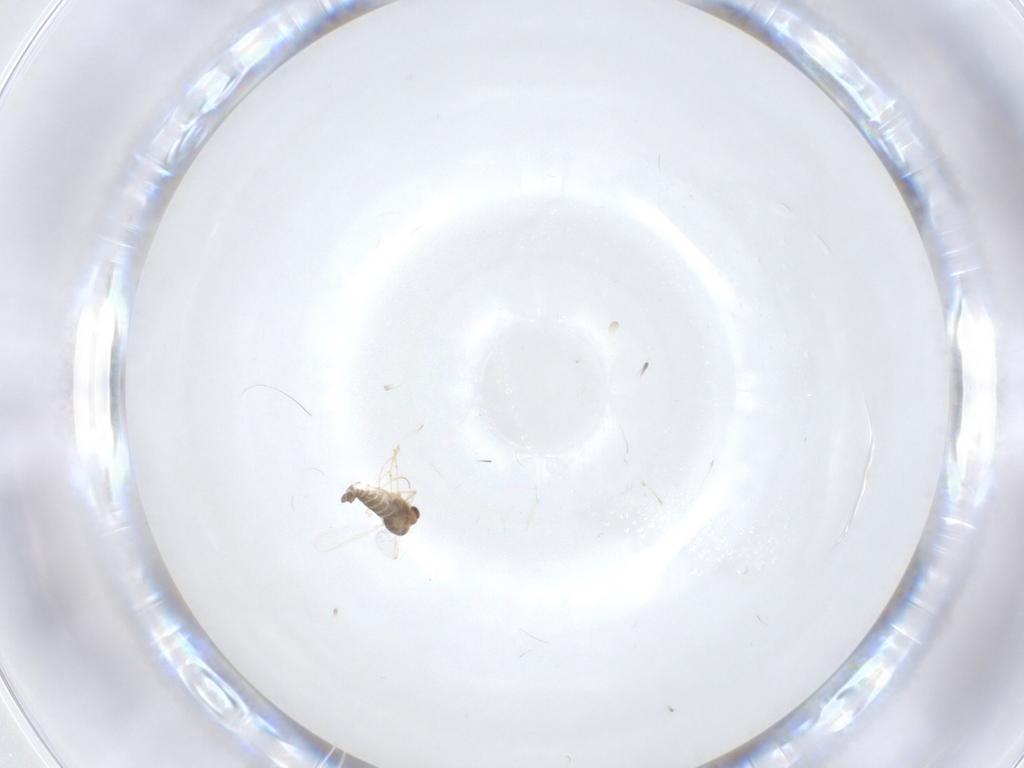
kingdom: Animalia
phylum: Arthropoda
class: Insecta
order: Diptera
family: Chironomidae
